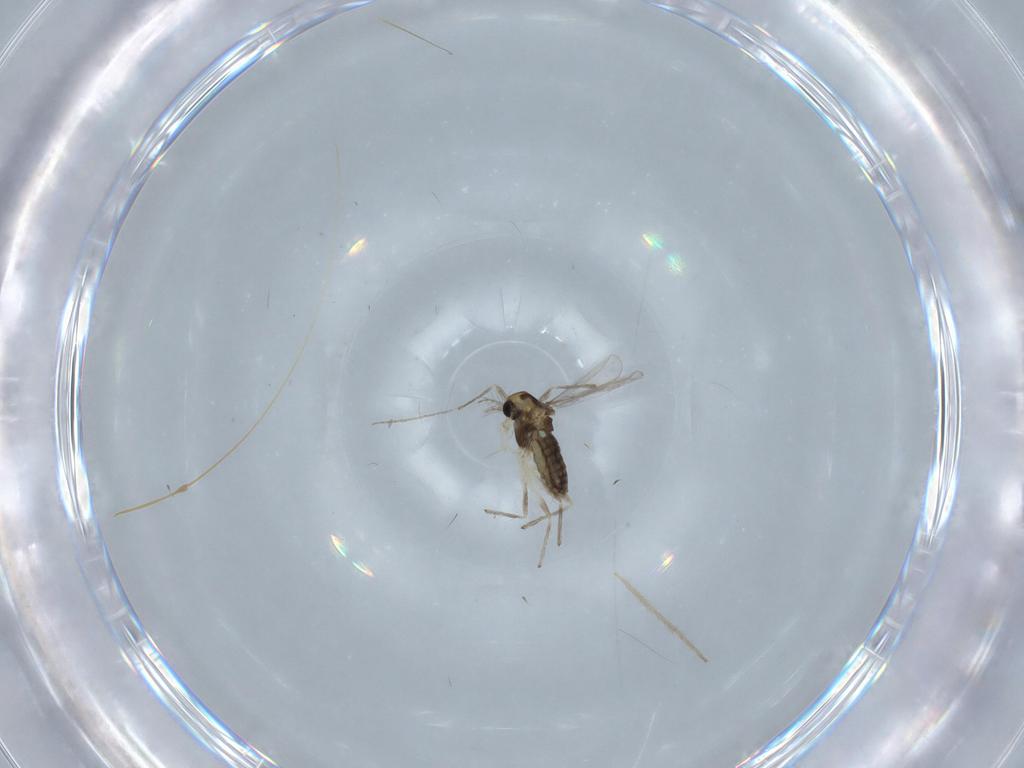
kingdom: Animalia
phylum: Arthropoda
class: Insecta
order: Diptera
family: Chironomidae
